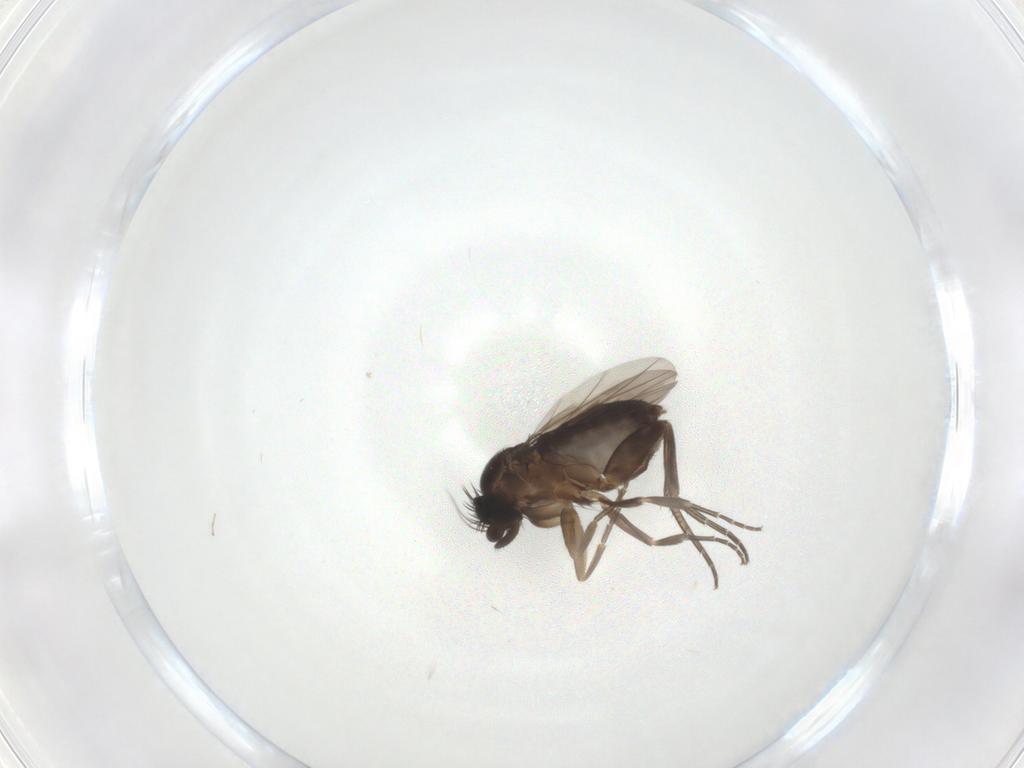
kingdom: Animalia
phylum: Arthropoda
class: Insecta
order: Diptera
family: Phoridae
